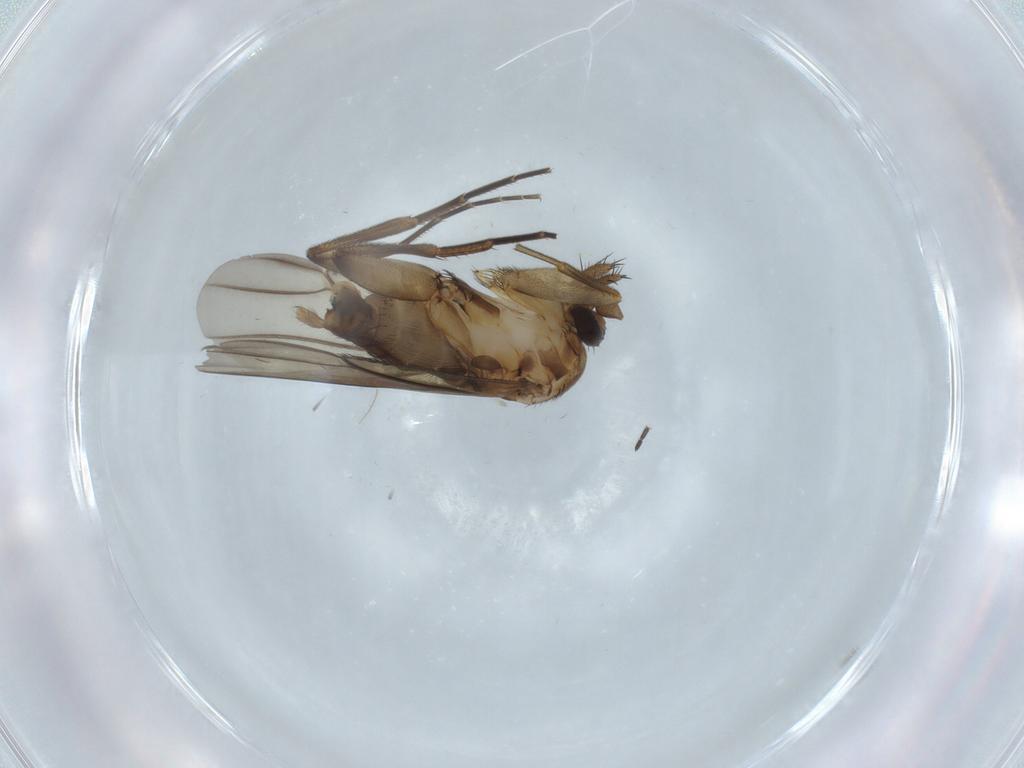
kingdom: Animalia
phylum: Arthropoda
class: Insecta
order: Diptera
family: Phoridae
